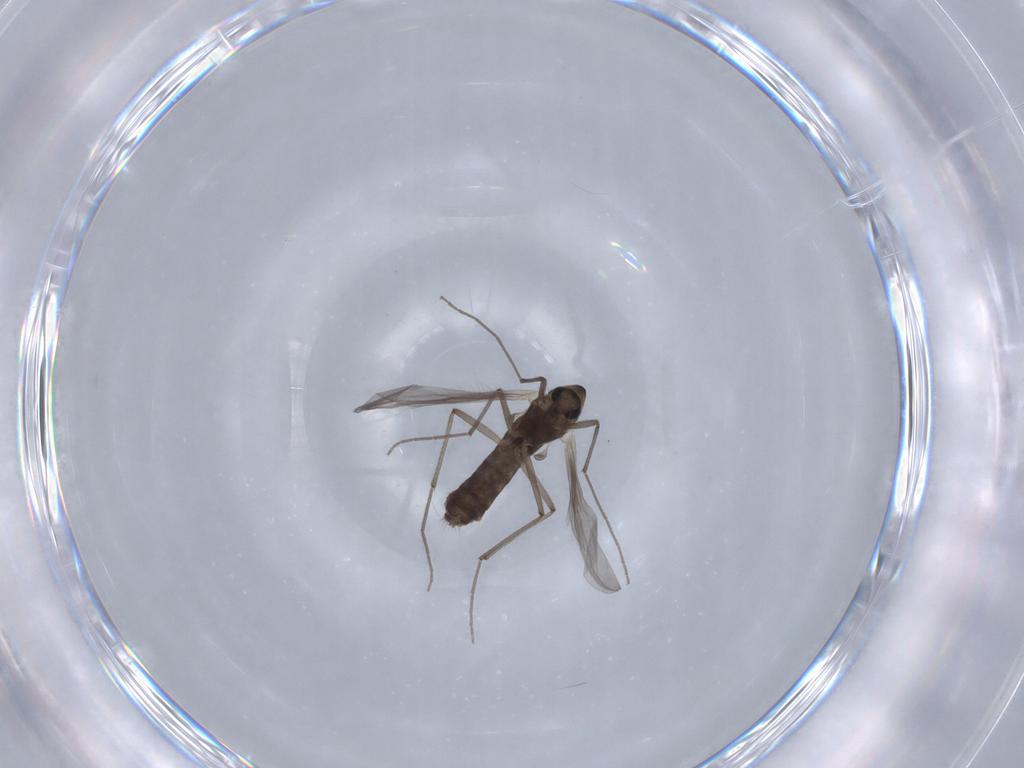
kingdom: Animalia
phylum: Arthropoda
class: Insecta
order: Diptera
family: Chironomidae
